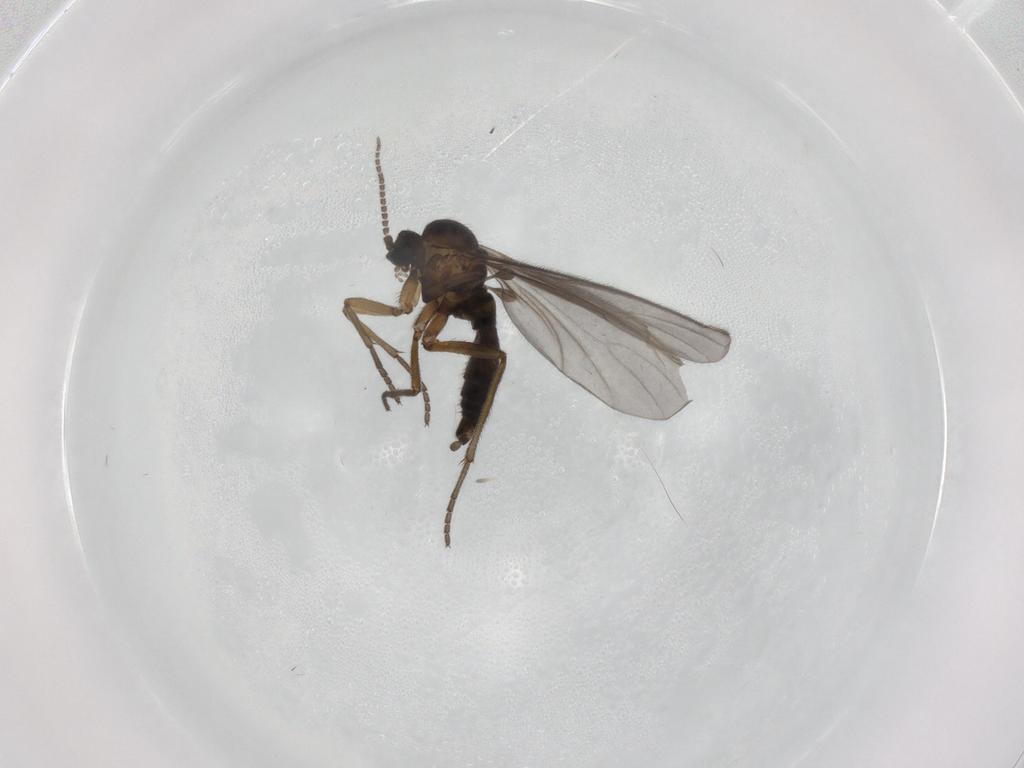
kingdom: Animalia
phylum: Arthropoda
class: Insecta
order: Diptera
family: Sciaridae
